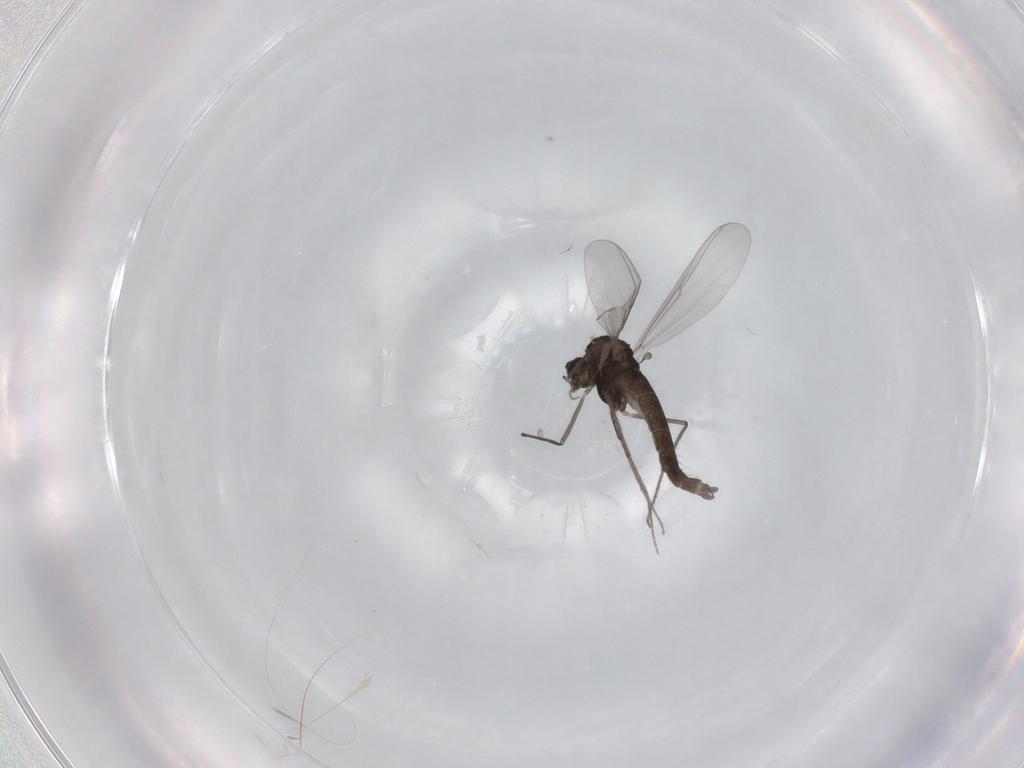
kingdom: Animalia
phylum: Arthropoda
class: Insecta
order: Diptera
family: Chironomidae
